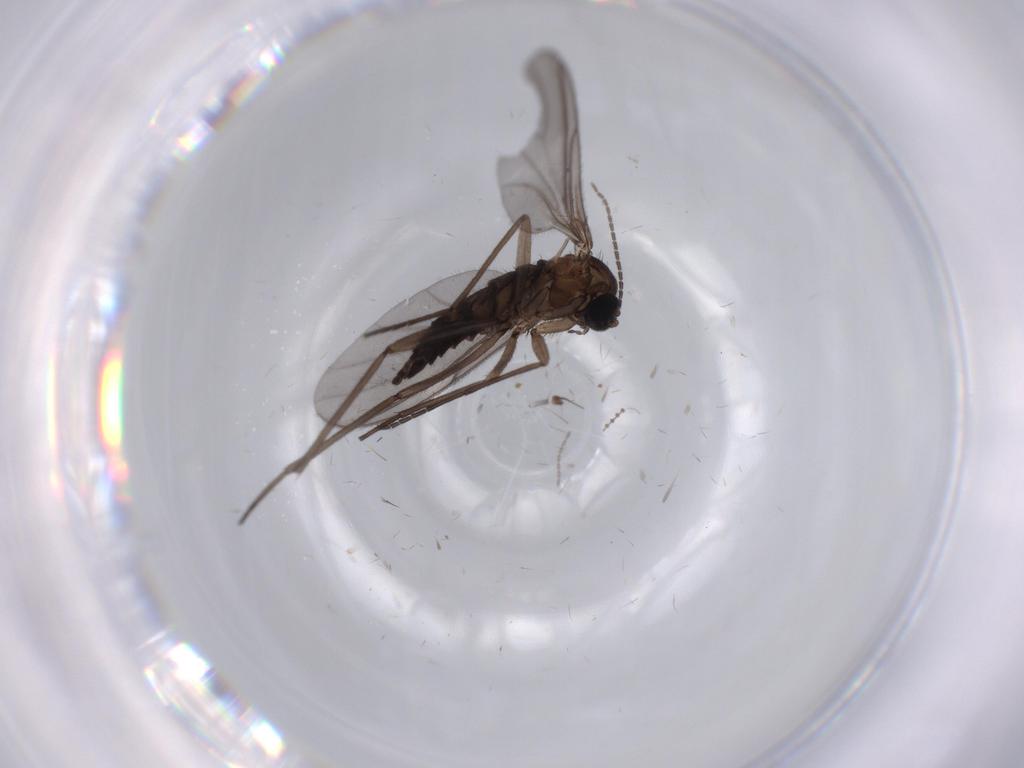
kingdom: Animalia
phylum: Arthropoda
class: Insecta
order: Diptera
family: Sciaridae
